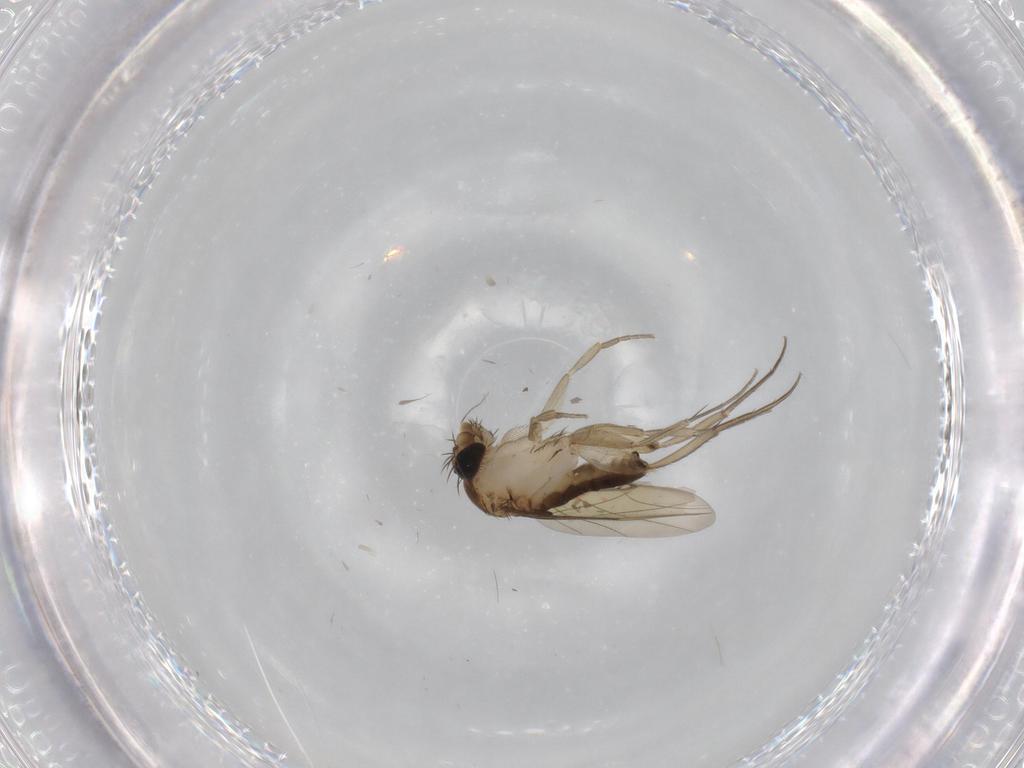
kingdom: Animalia
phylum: Arthropoda
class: Insecta
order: Diptera
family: Phoridae
